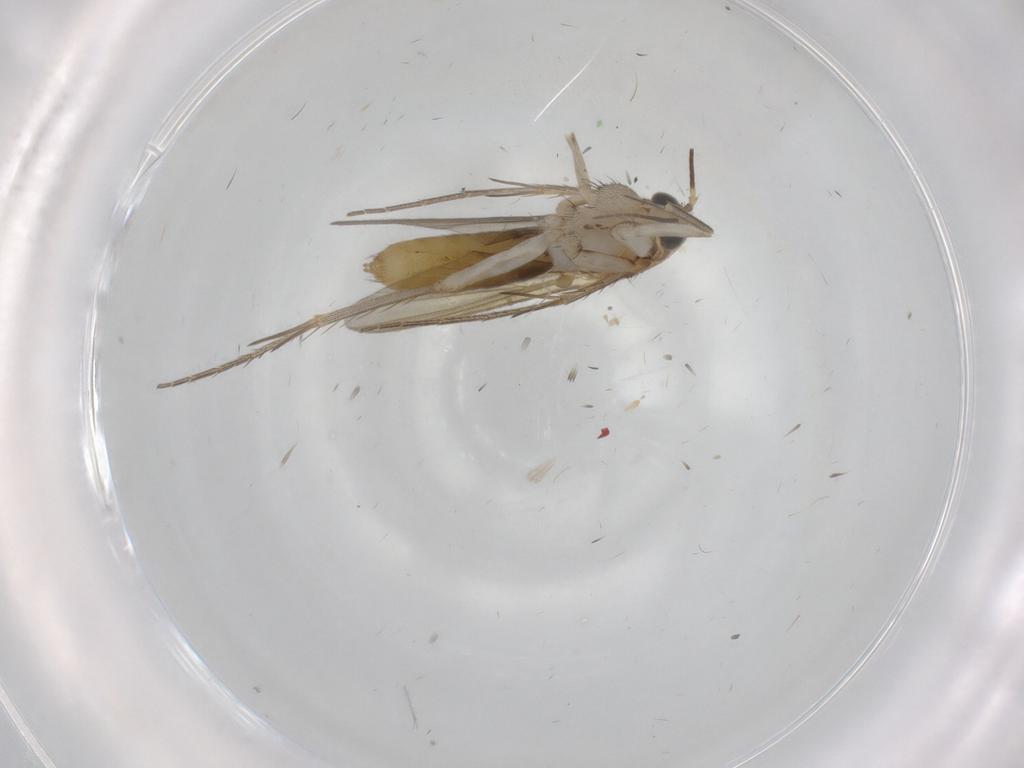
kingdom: Animalia
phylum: Arthropoda
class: Insecta
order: Diptera
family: Mycetophilidae
